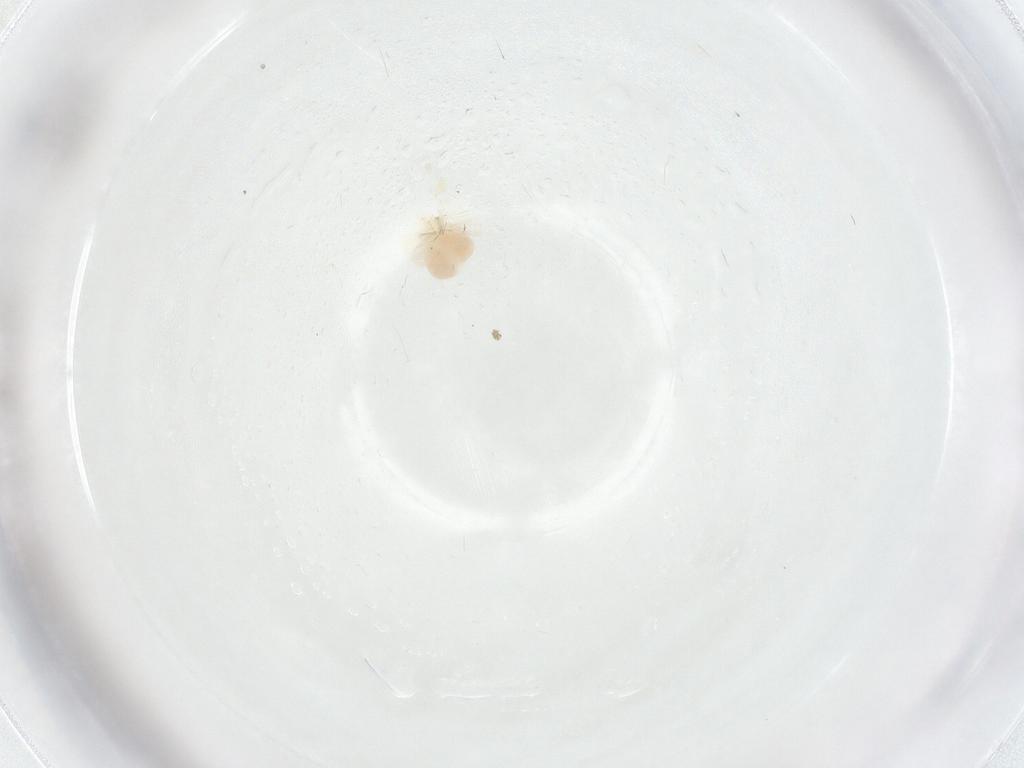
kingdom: Animalia
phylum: Arthropoda
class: Arachnida
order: Trombidiformes
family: Anystidae
